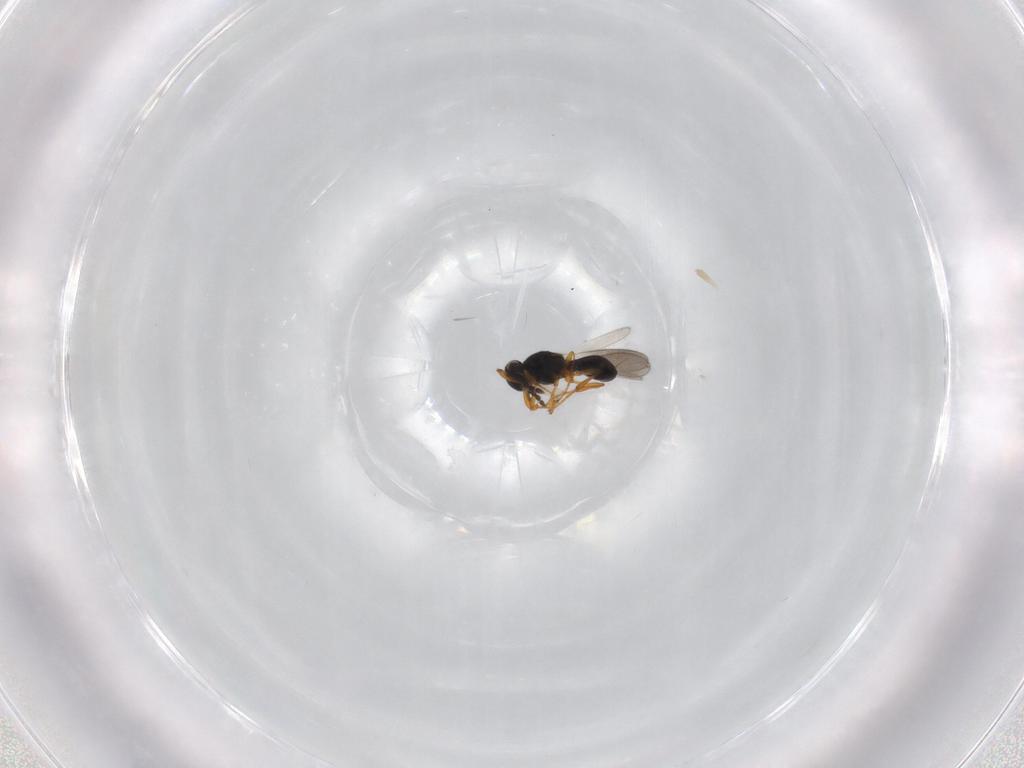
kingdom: Animalia
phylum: Arthropoda
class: Insecta
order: Hymenoptera
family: Platygastridae
